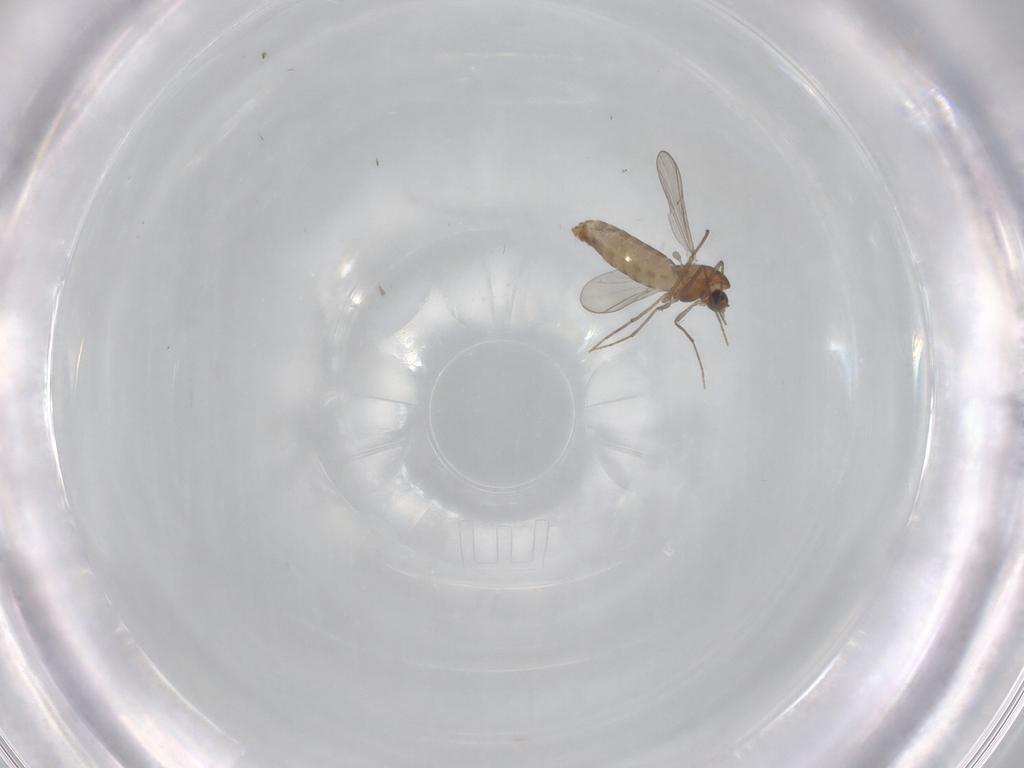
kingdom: Animalia
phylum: Arthropoda
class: Insecta
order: Diptera
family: Chironomidae
